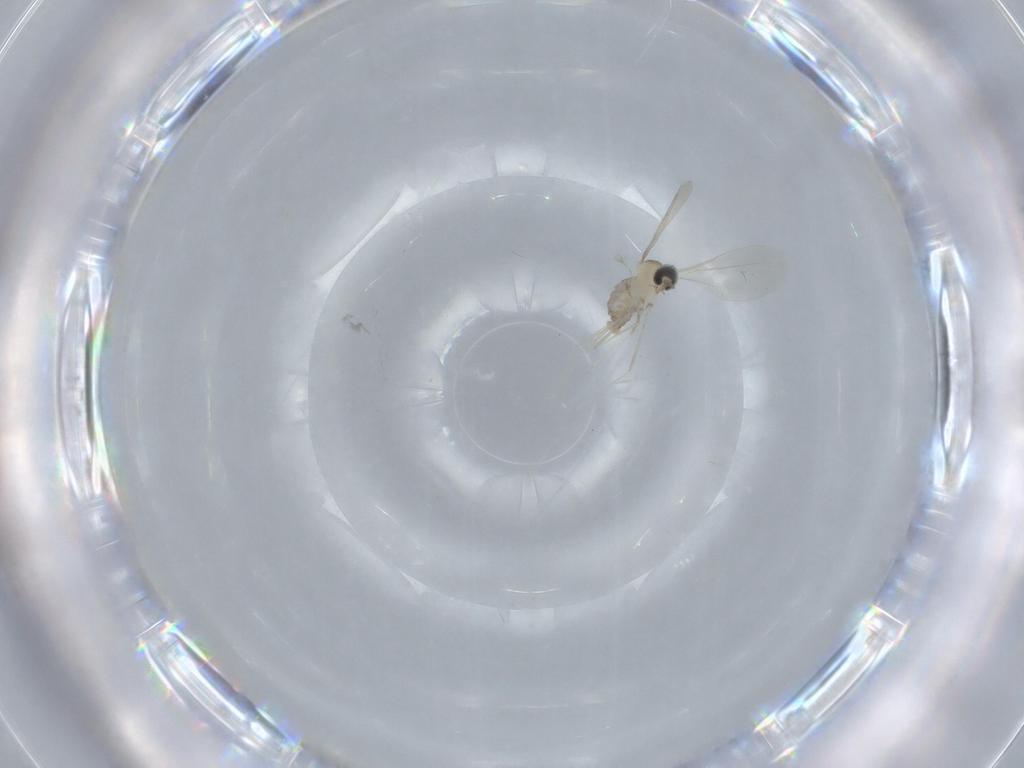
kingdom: Animalia
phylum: Arthropoda
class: Insecta
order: Diptera
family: Cecidomyiidae
